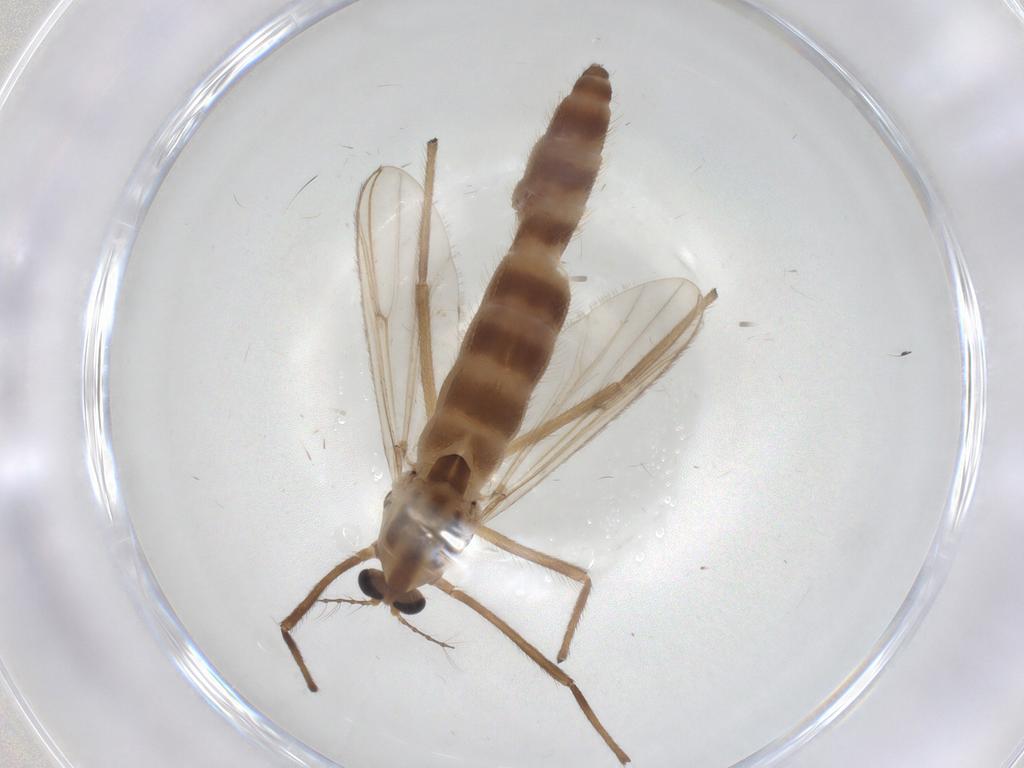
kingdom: Animalia
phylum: Arthropoda
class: Insecta
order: Diptera
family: Chironomidae
